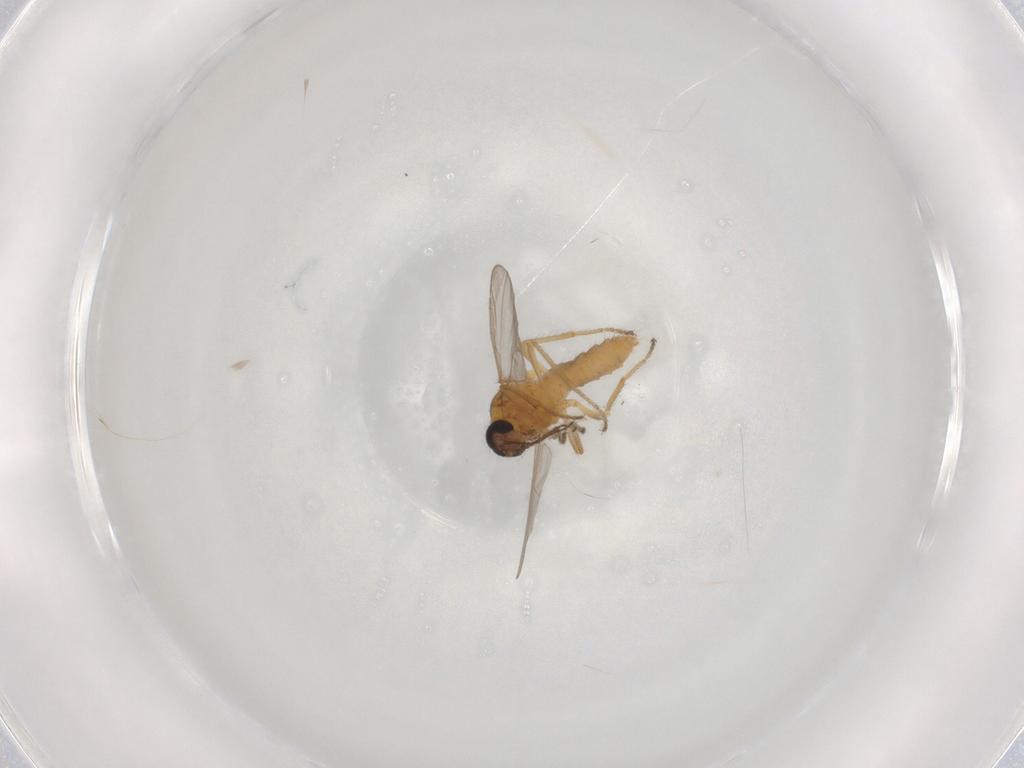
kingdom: Animalia
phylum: Arthropoda
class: Insecta
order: Diptera
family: Ceratopogonidae
